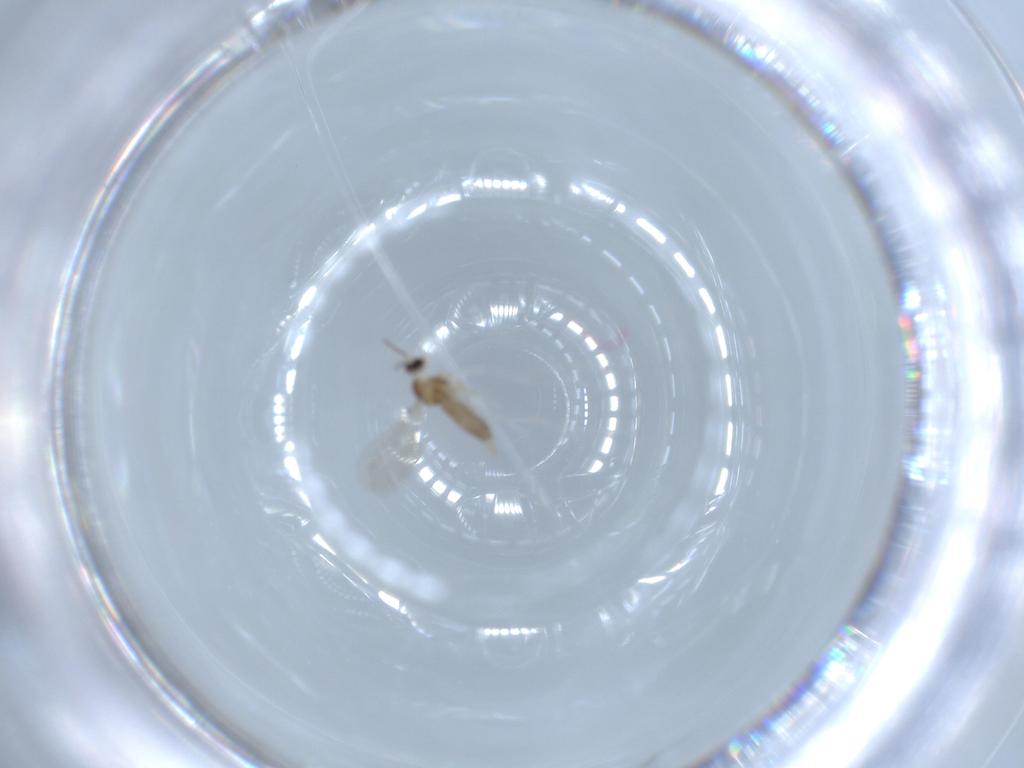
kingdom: Animalia
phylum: Arthropoda
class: Insecta
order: Diptera
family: Cecidomyiidae
